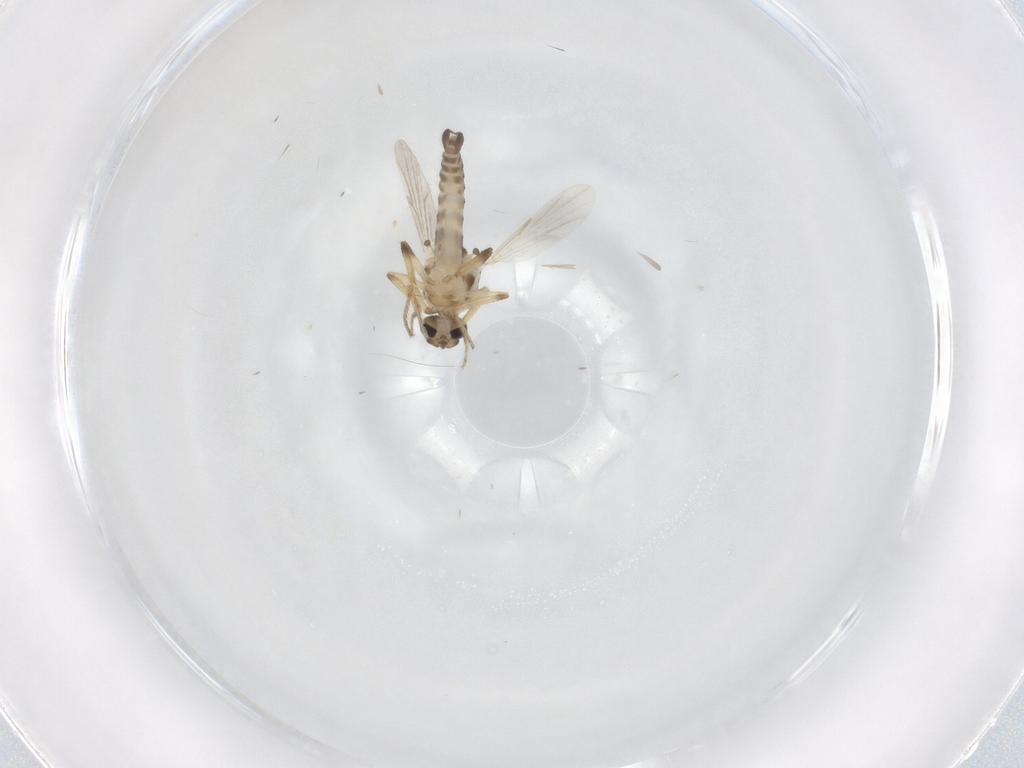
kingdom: Animalia
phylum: Arthropoda
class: Insecta
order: Diptera
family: Ceratopogonidae
